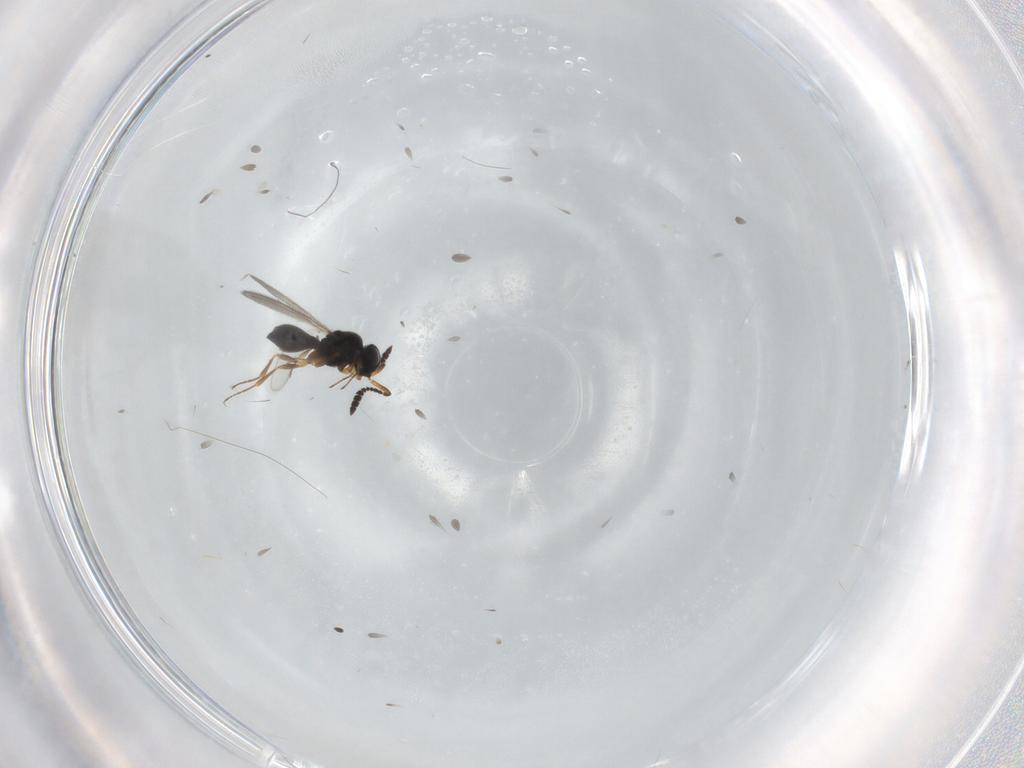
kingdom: Animalia
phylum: Arthropoda
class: Insecta
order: Hymenoptera
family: Scelionidae
